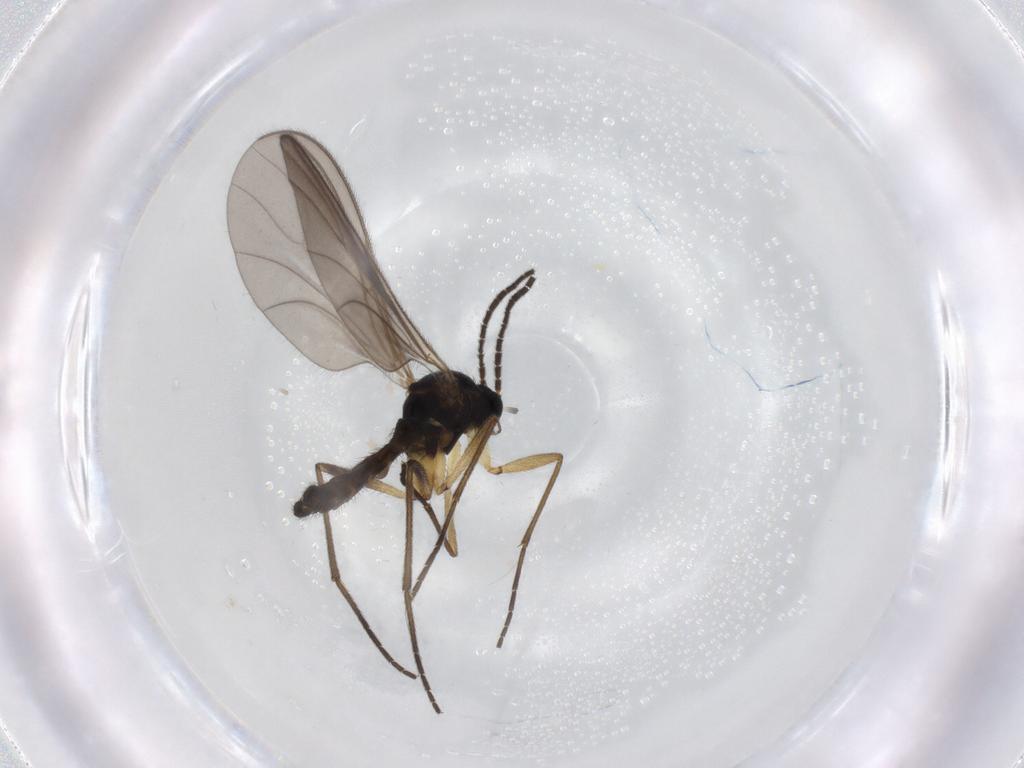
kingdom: Animalia
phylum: Arthropoda
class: Insecta
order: Diptera
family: Sciaridae
